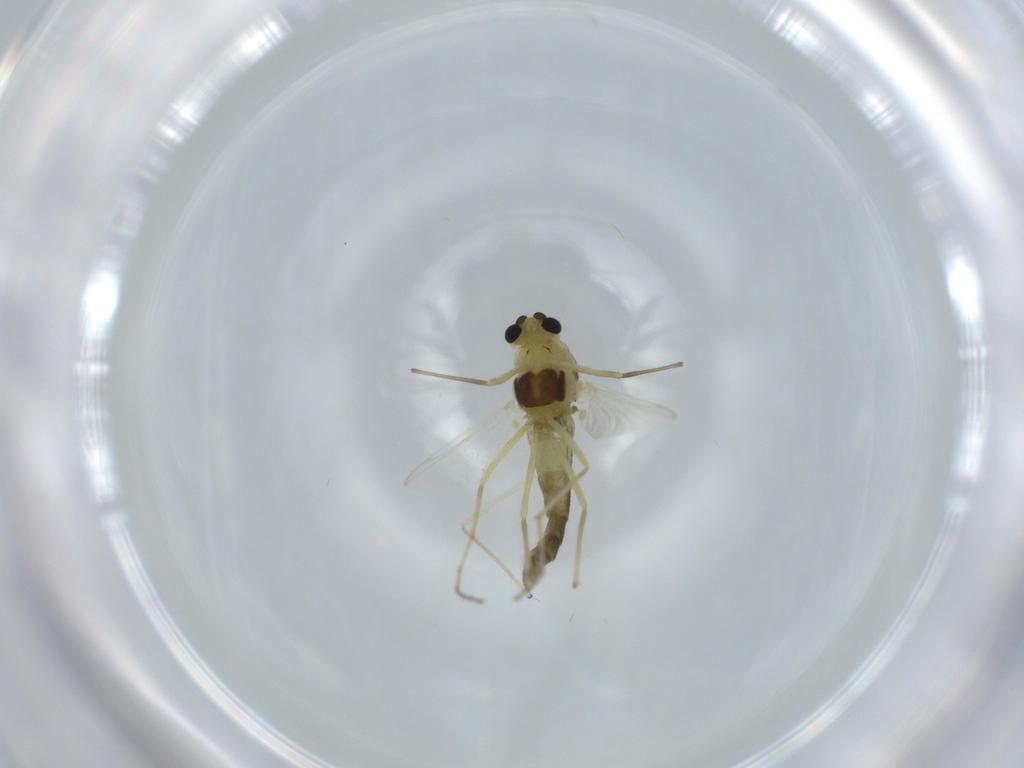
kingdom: Animalia
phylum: Arthropoda
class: Insecta
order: Diptera
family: Chironomidae
